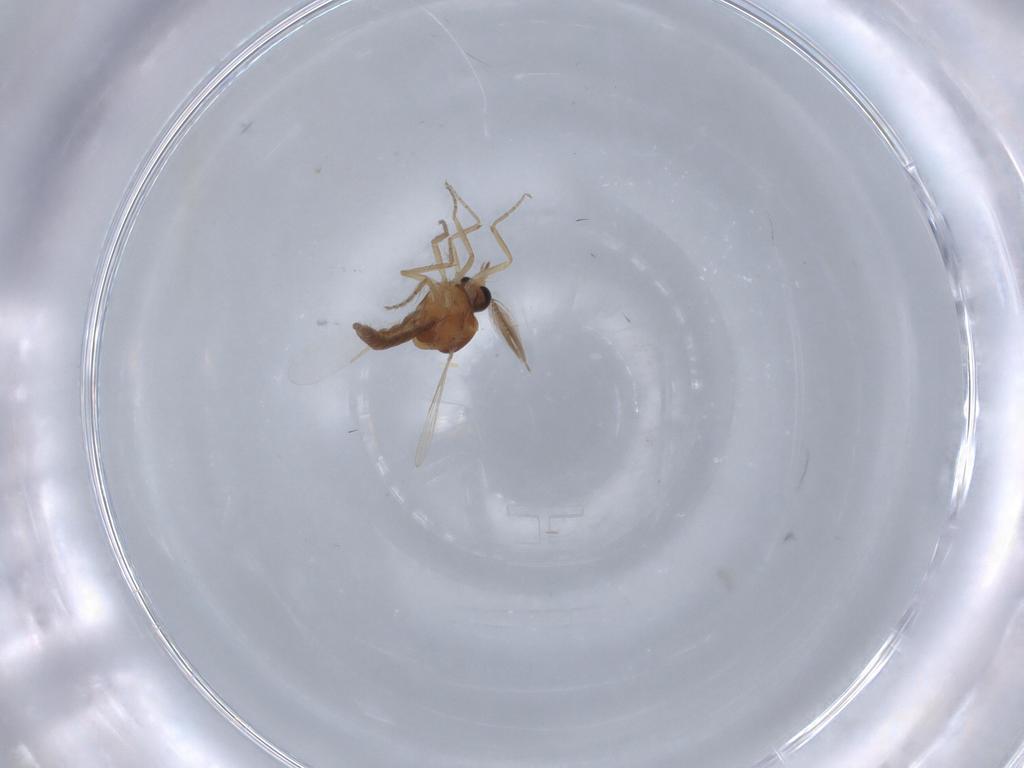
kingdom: Animalia
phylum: Arthropoda
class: Insecta
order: Diptera
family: Ceratopogonidae
